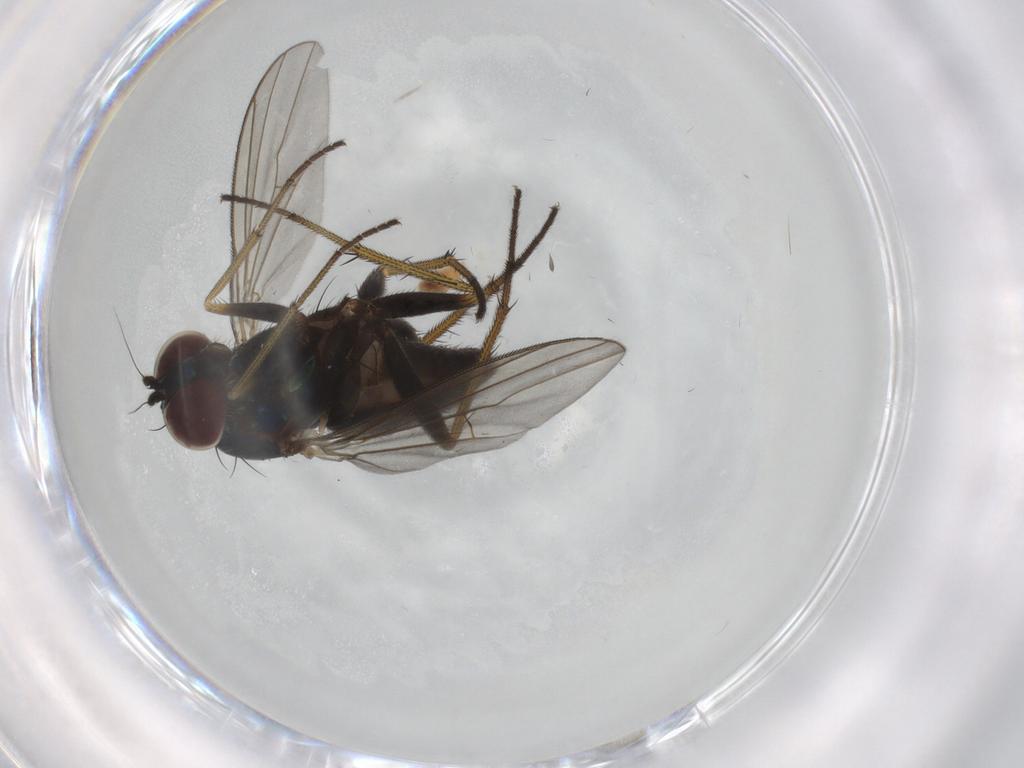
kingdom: Animalia
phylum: Arthropoda
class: Insecta
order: Diptera
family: Dolichopodidae
